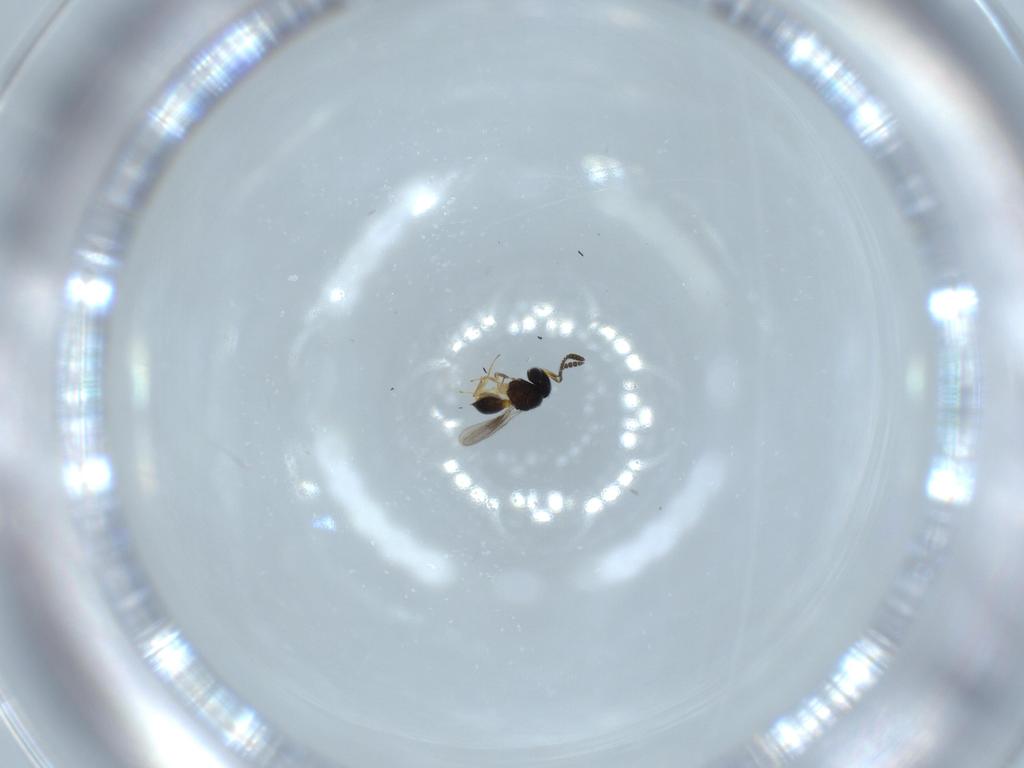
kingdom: Animalia
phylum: Arthropoda
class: Insecta
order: Hymenoptera
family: Scelionidae
